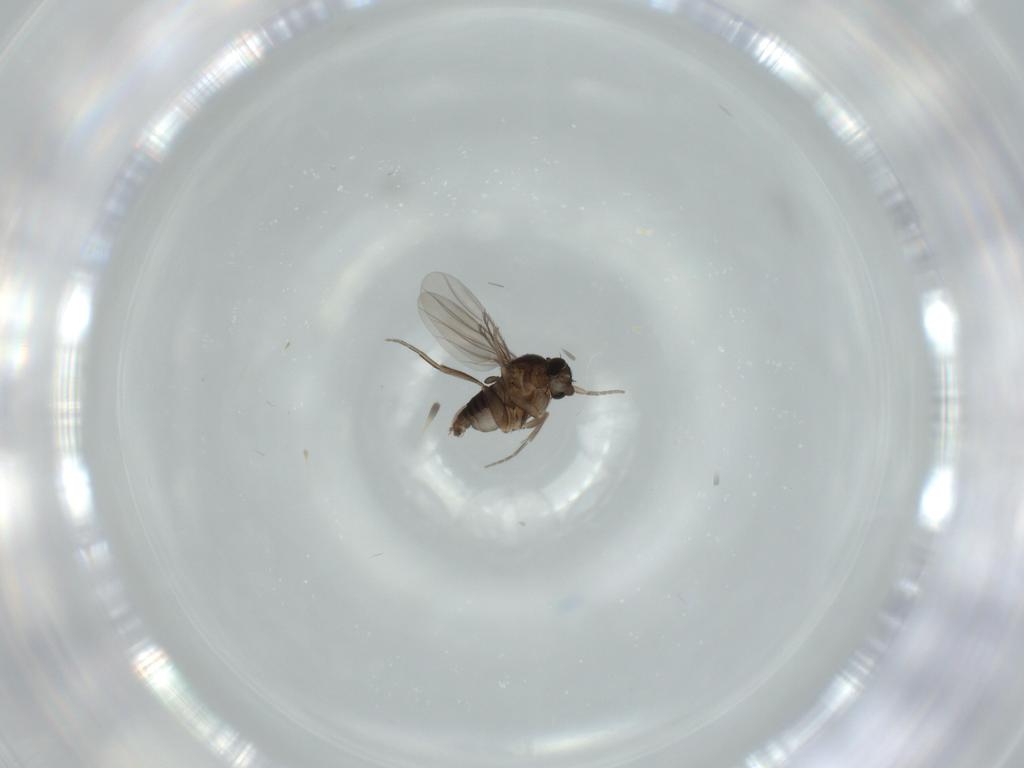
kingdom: Animalia
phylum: Arthropoda
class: Insecta
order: Diptera
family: Phoridae
